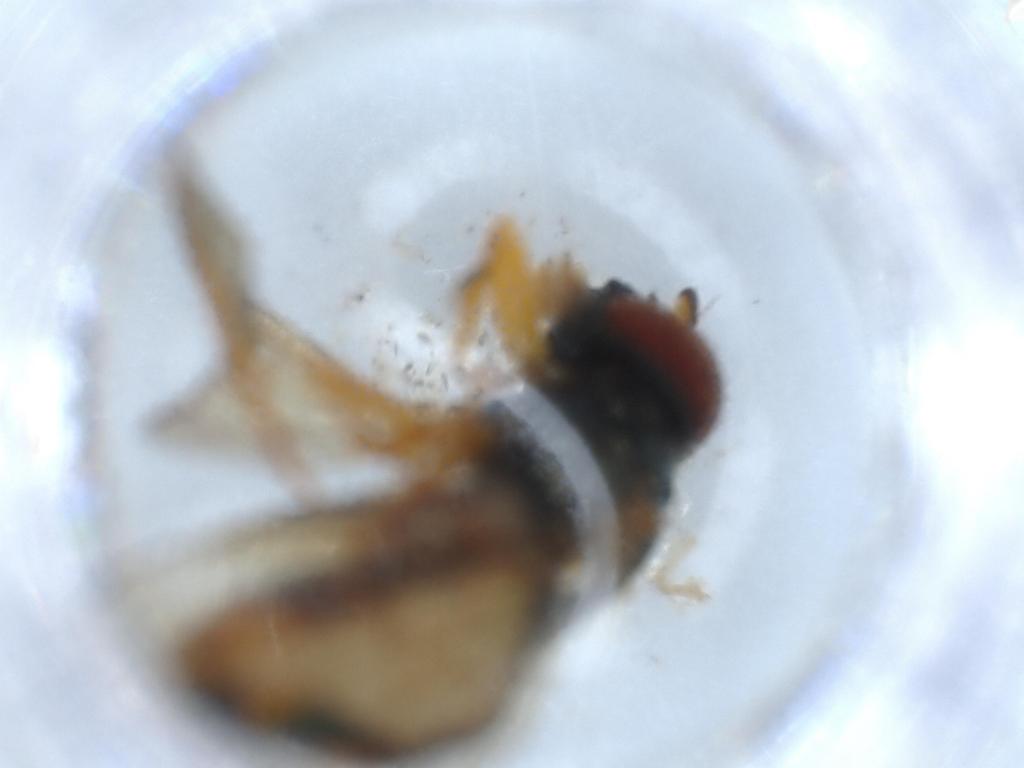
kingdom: Animalia
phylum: Arthropoda
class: Insecta
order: Diptera
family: Syrphidae
